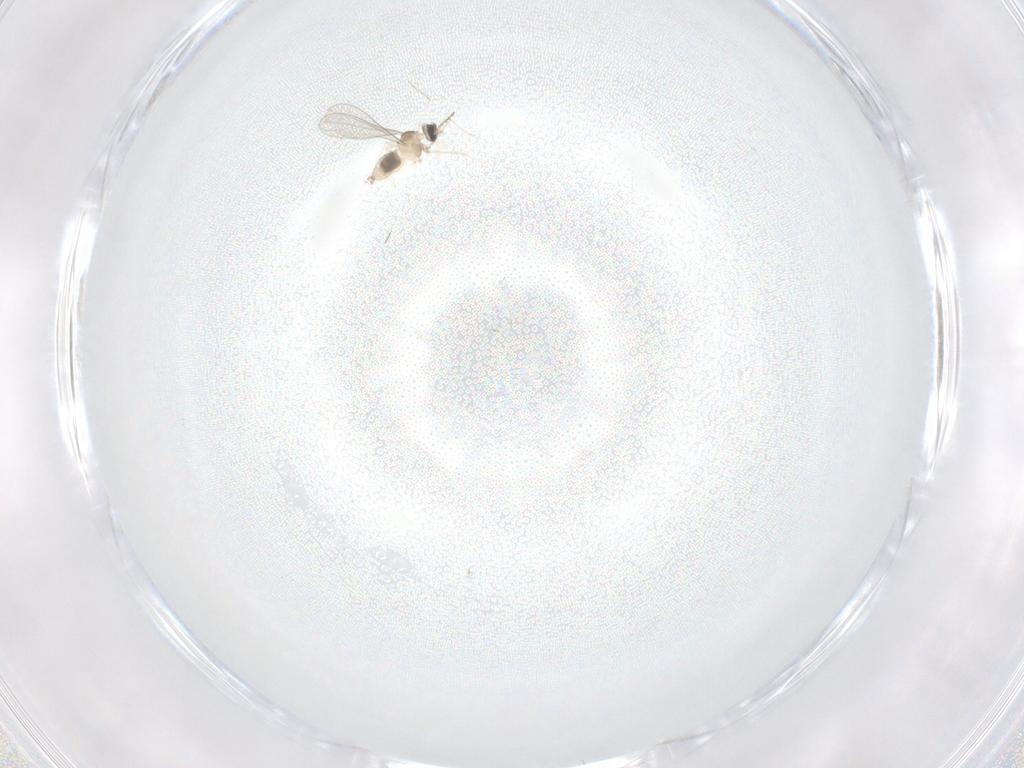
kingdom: Animalia
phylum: Arthropoda
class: Insecta
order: Diptera
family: Cecidomyiidae
